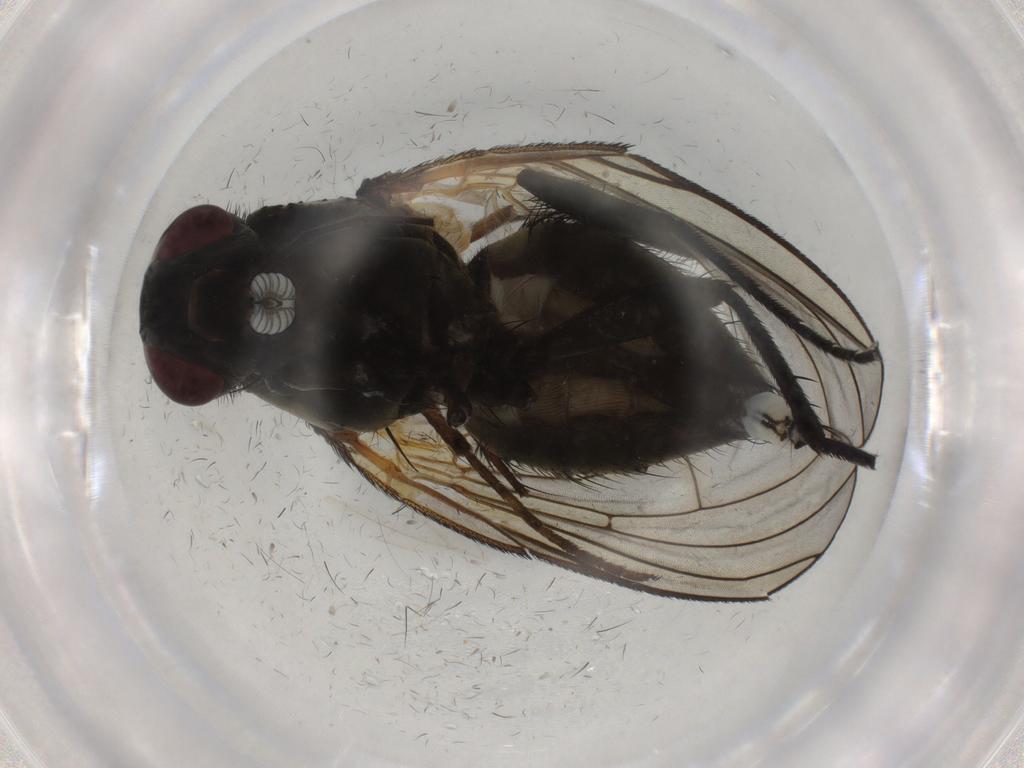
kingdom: Animalia
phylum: Arthropoda
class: Insecta
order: Diptera
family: Muscidae
